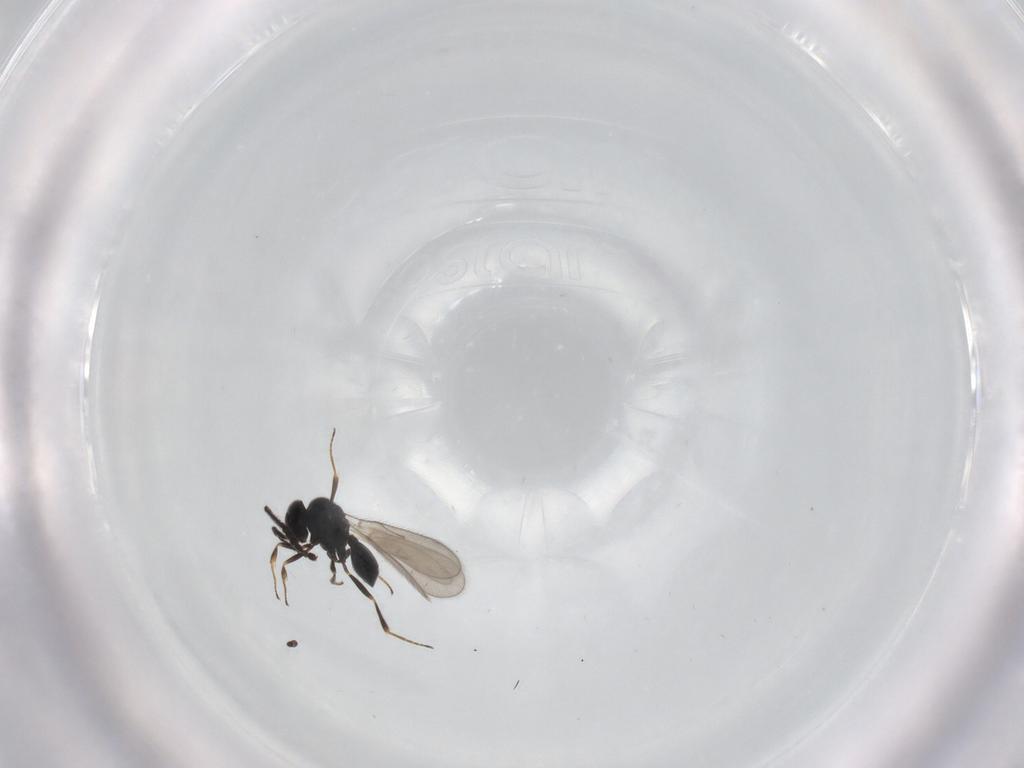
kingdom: Animalia
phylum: Arthropoda
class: Insecta
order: Hymenoptera
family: Scelionidae
